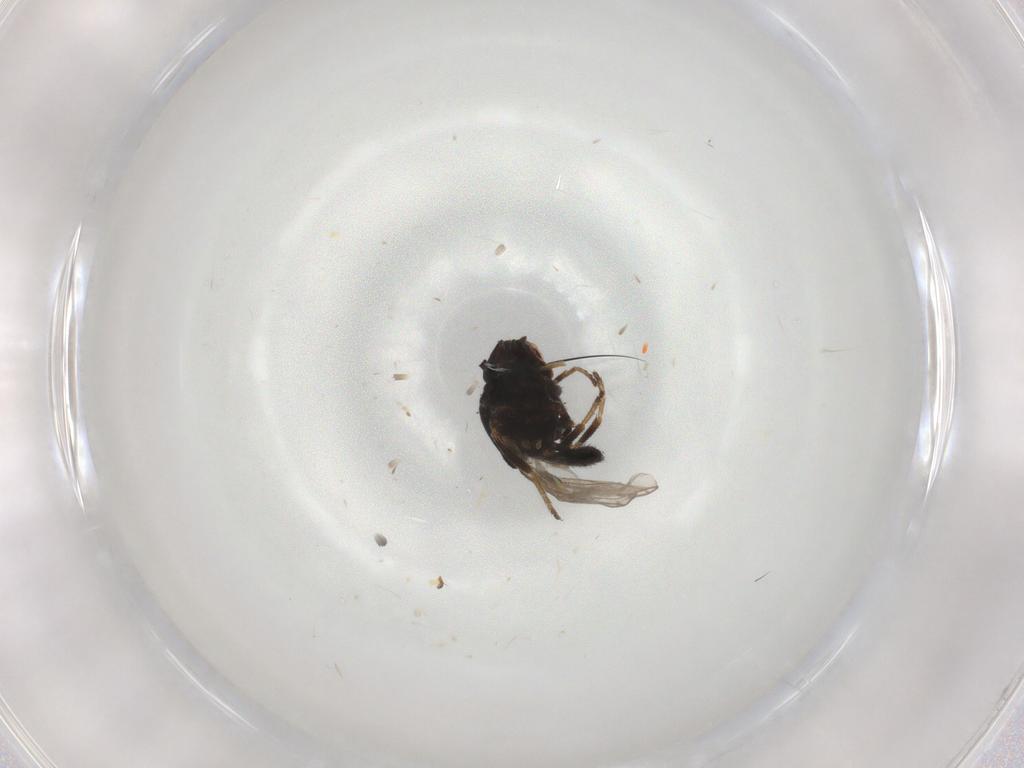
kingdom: Animalia
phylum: Arthropoda
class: Insecta
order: Diptera
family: Chloropidae
